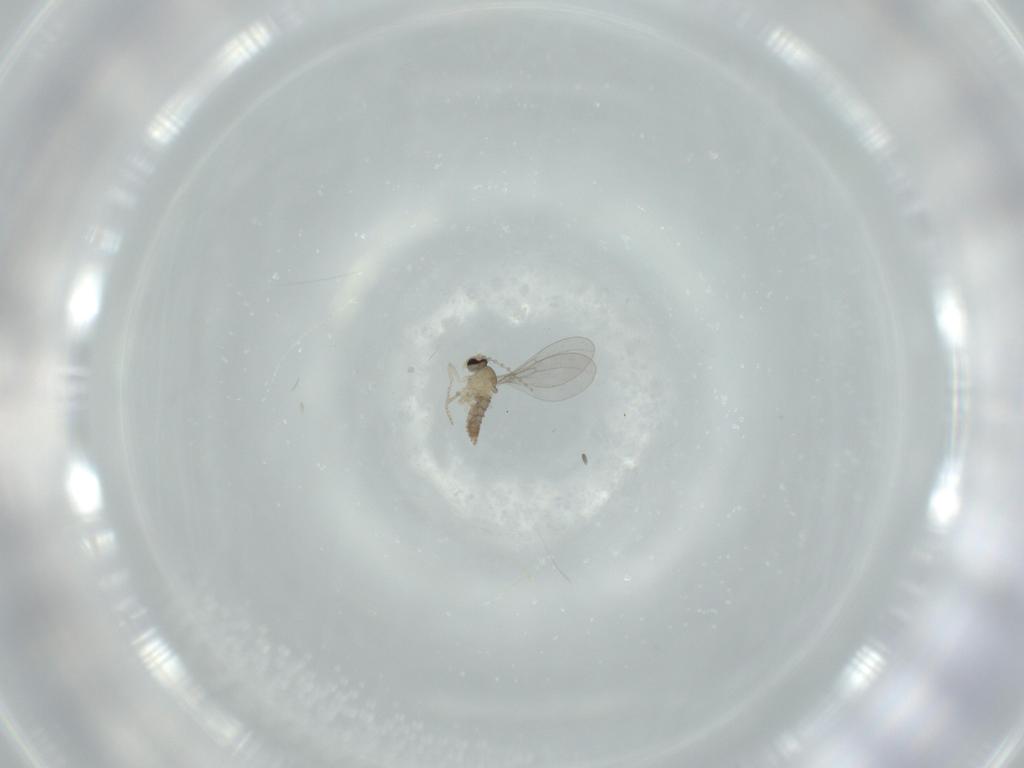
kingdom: Animalia
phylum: Arthropoda
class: Insecta
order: Diptera
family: Cecidomyiidae
